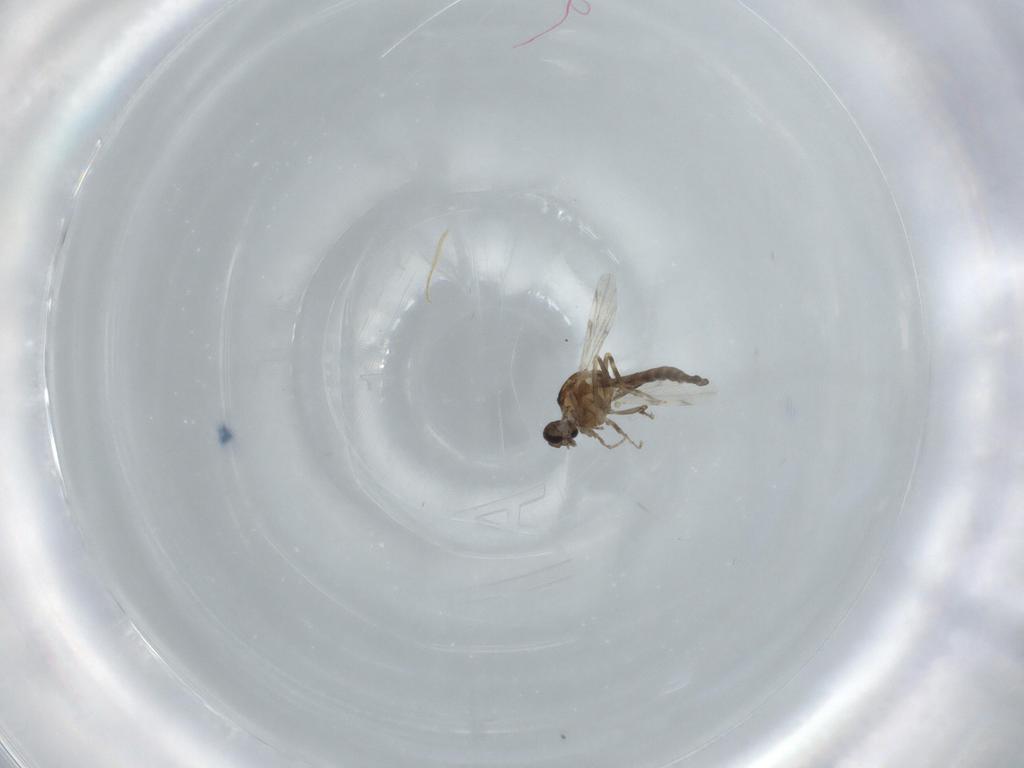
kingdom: Animalia
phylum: Arthropoda
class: Insecta
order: Diptera
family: Ceratopogonidae
